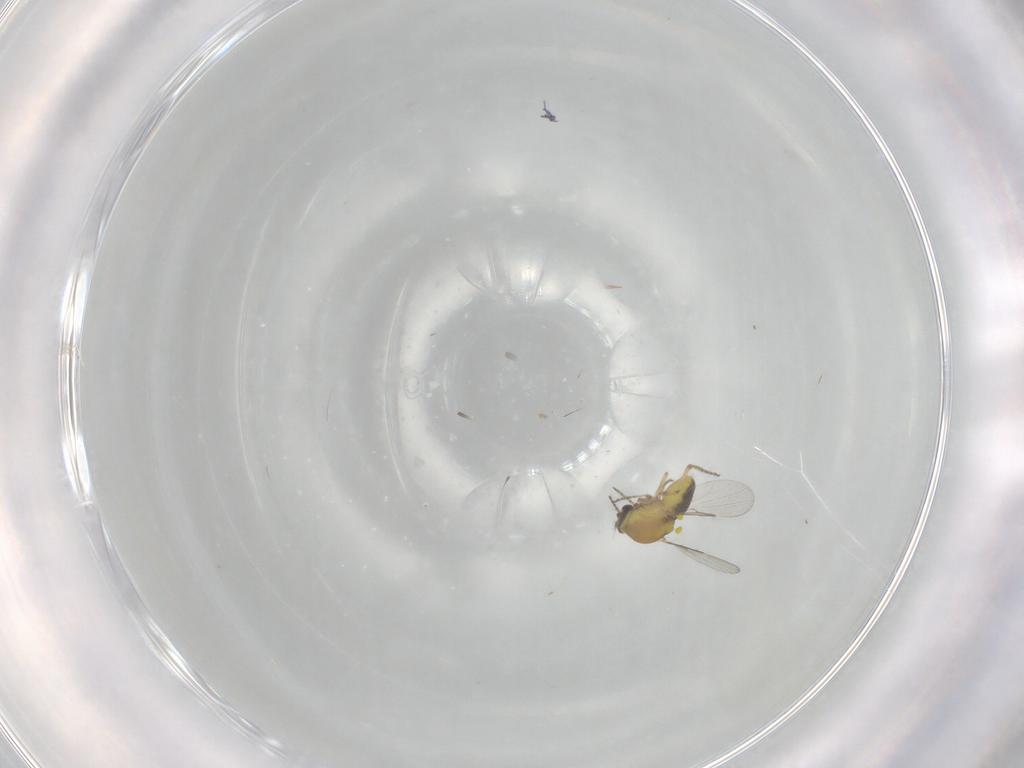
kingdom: Animalia
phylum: Arthropoda
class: Insecta
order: Diptera
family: Ceratopogonidae
